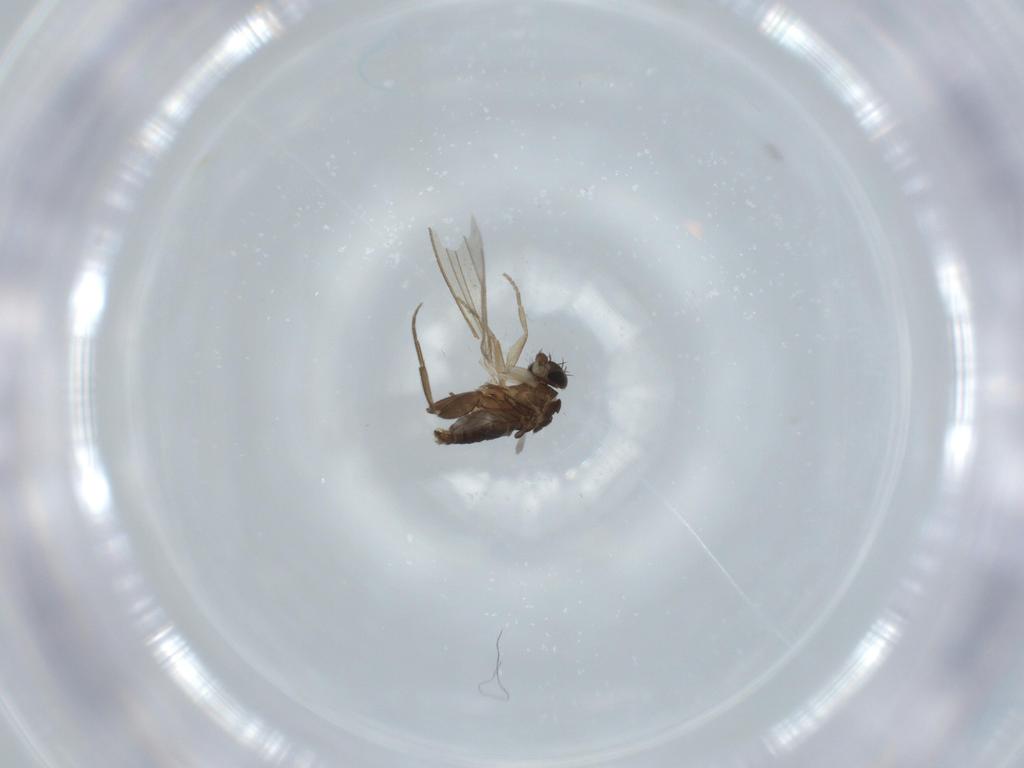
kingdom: Animalia
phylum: Arthropoda
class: Insecta
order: Diptera
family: Phoridae
